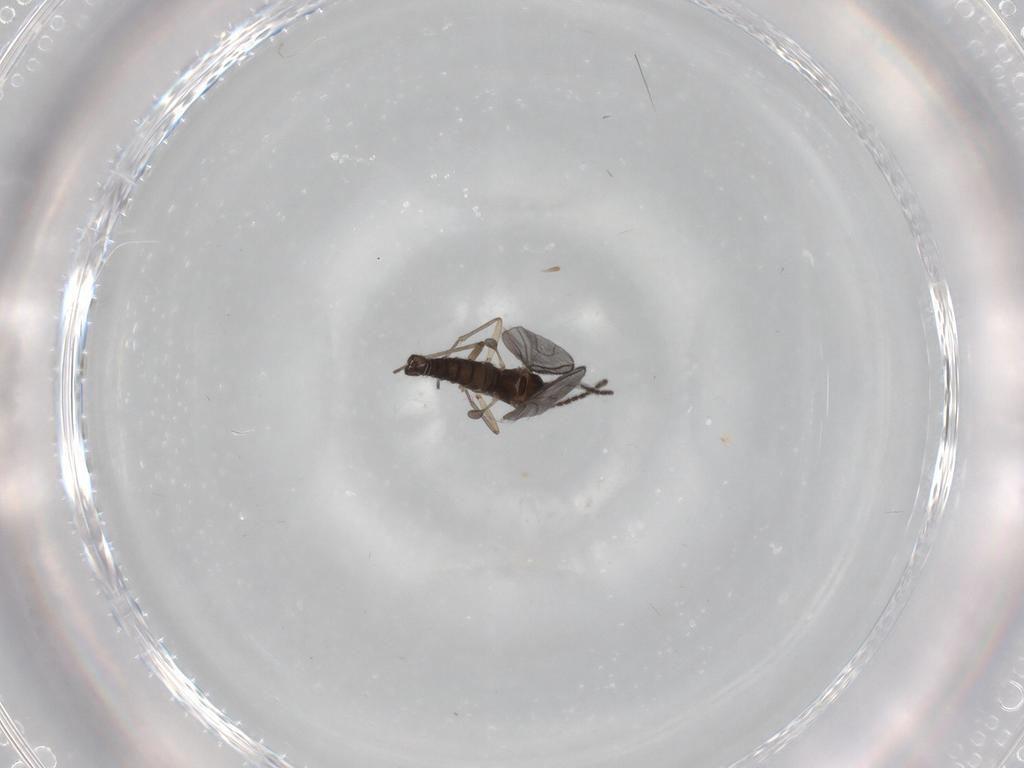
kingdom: Animalia
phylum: Arthropoda
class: Insecta
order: Diptera
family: Sciaridae
